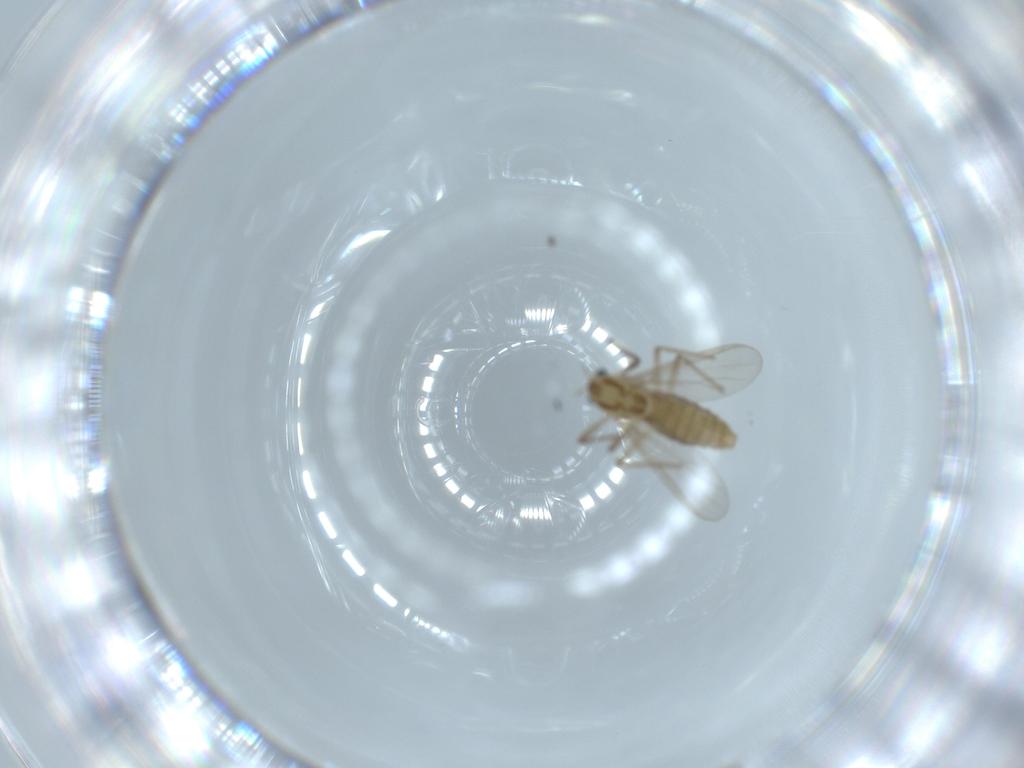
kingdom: Animalia
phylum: Arthropoda
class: Insecta
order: Diptera
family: Chironomidae
